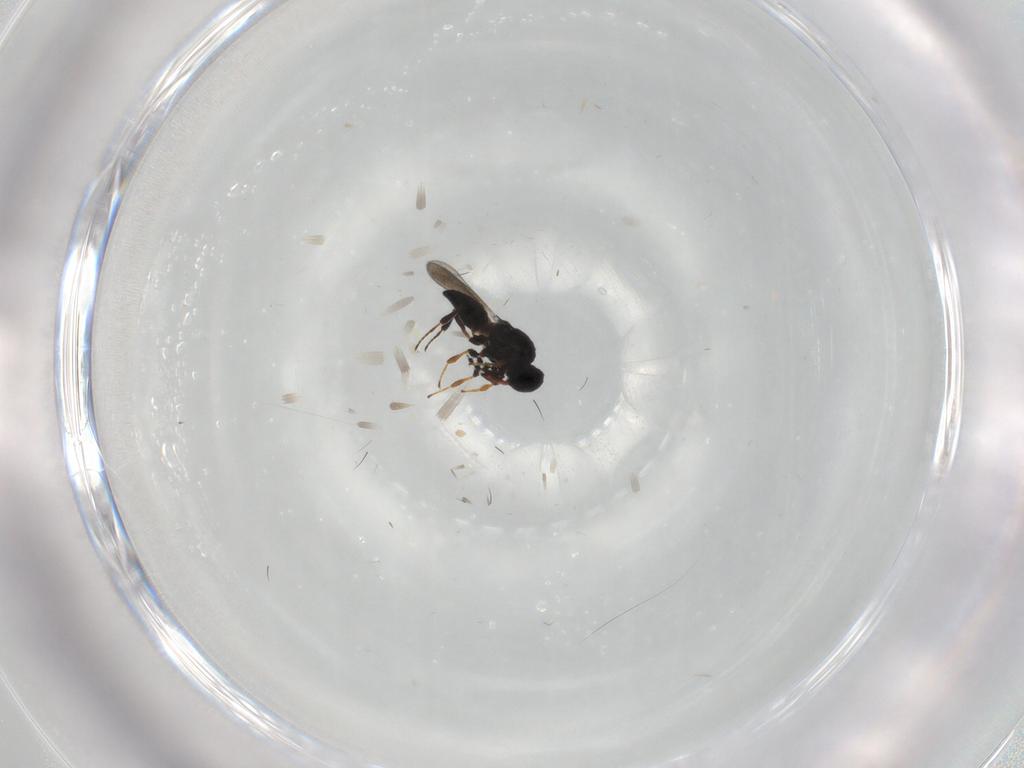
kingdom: Animalia
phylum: Arthropoda
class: Insecta
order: Hymenoptera
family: Platygastridae
